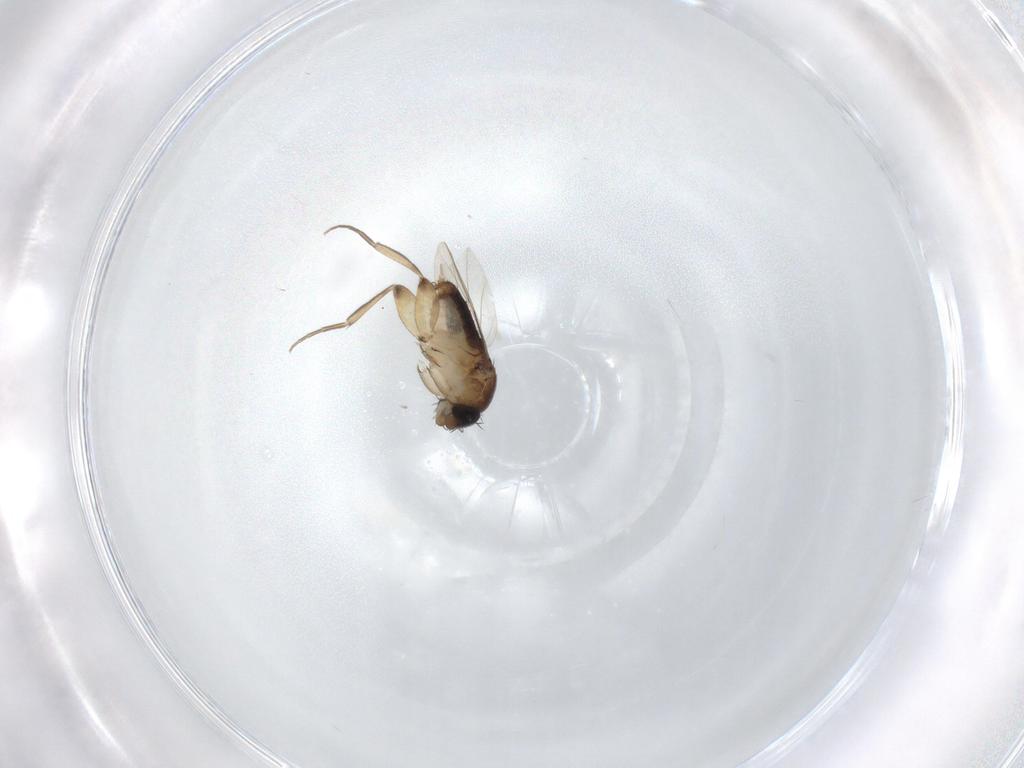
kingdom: Animalia
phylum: Arthropoda
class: Insecta
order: Diptera
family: Phoridae
